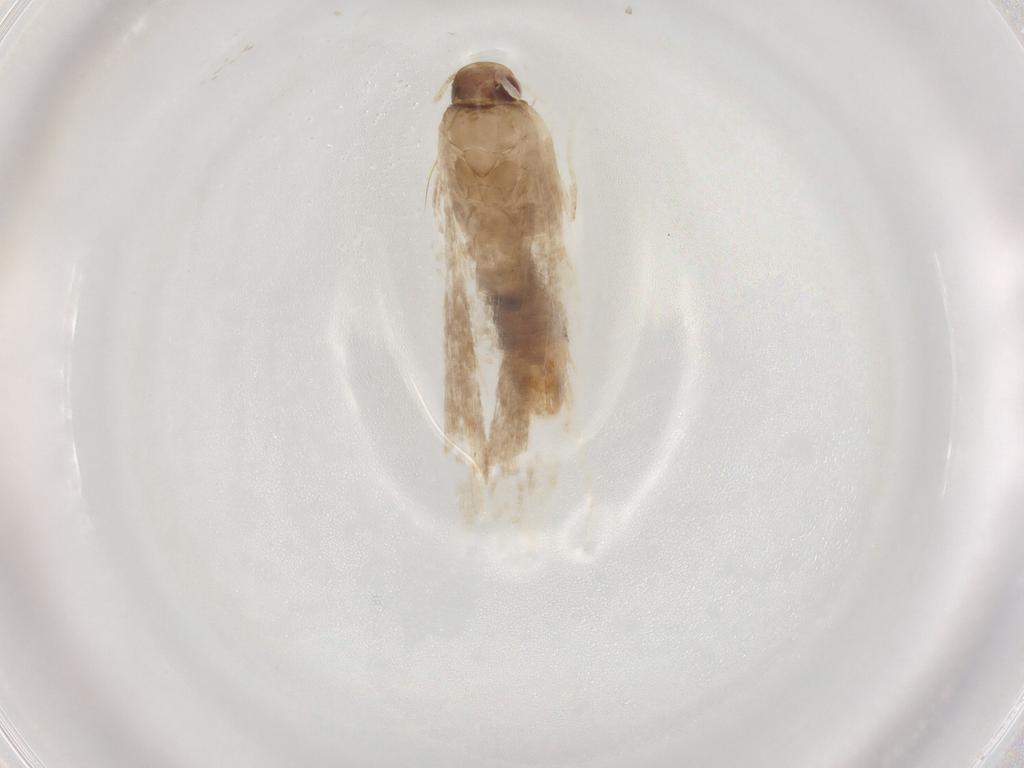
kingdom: Animalia
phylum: Arthropoda
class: Insecta
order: Lepidoptera
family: Gelechiidae
